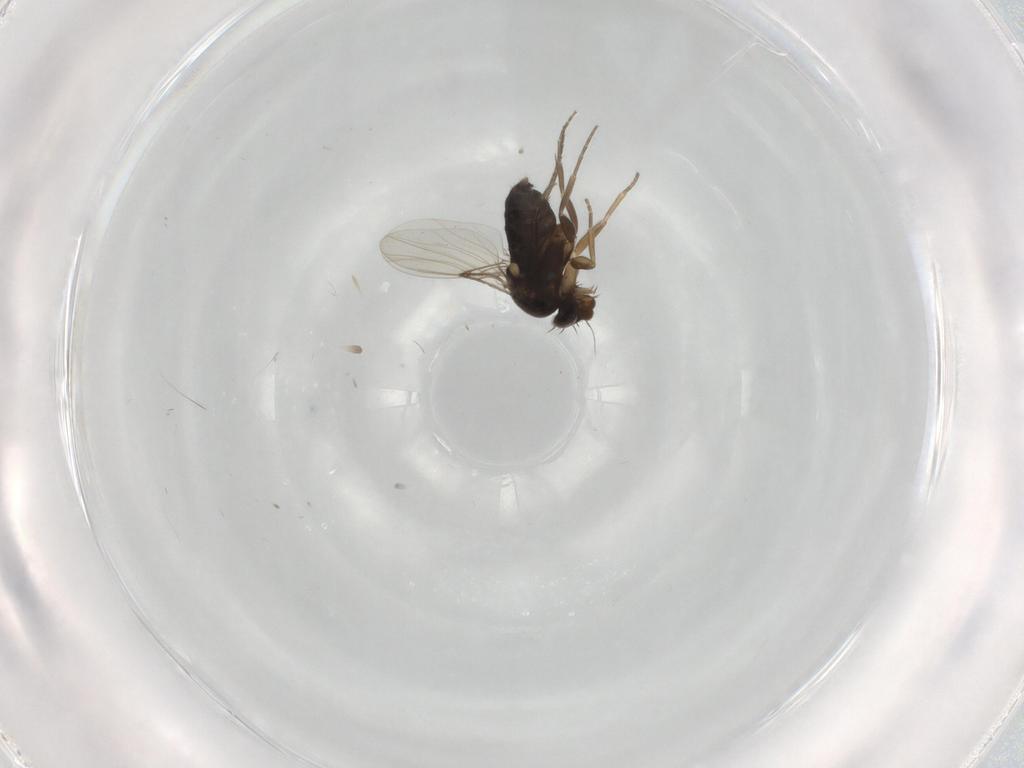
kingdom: Animalia
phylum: Arthropoda
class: Insecta
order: Diptera
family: Phoridae
